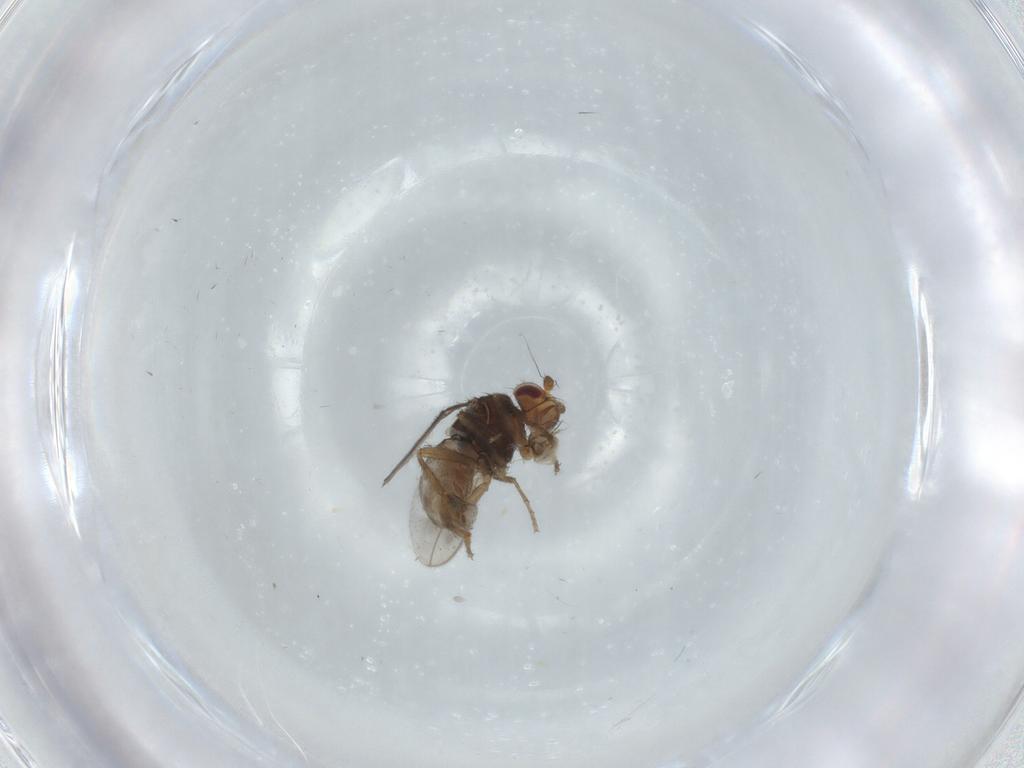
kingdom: Animalia
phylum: Arthropoda
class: Insecta
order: Diptera
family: Sphaeroceridae
